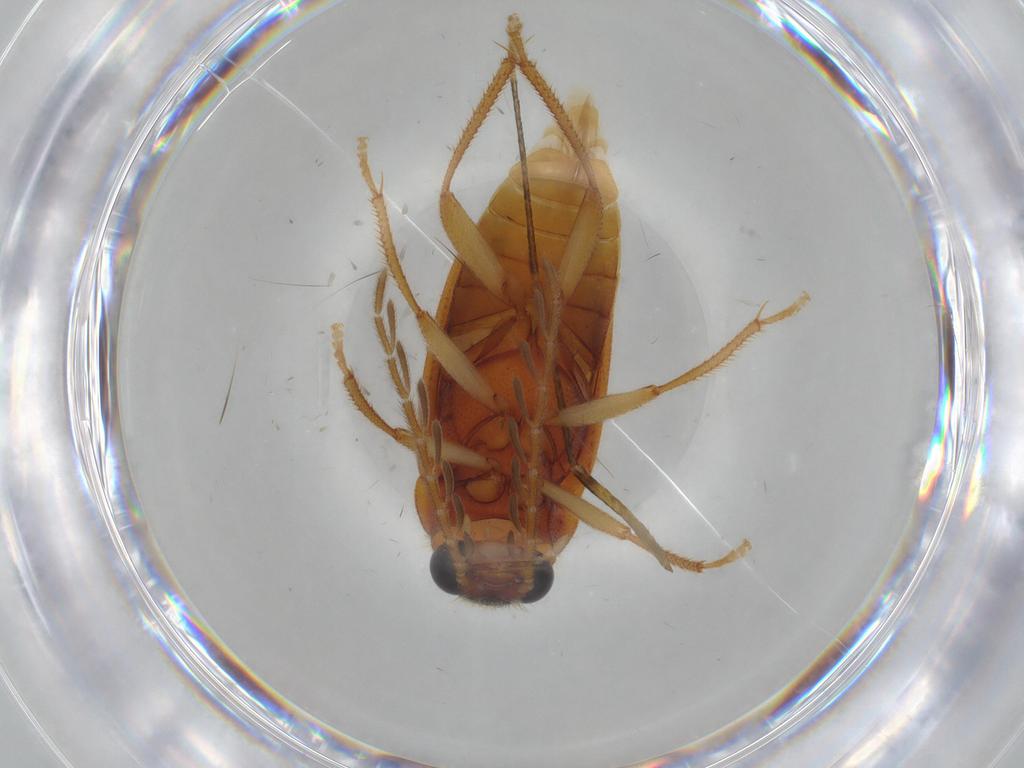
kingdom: Animalia
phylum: Arthropoda
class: Insecta
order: Coleoptera
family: Ptilodactylidae
